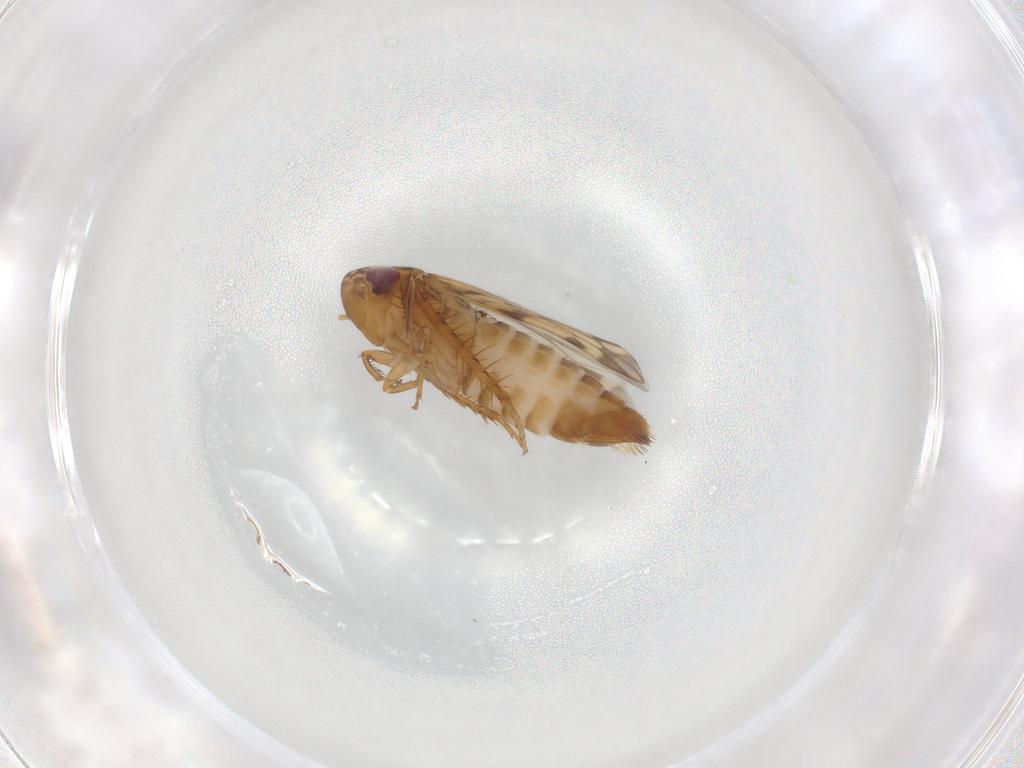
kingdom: Animalia
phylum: Arthropoda
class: Insecta
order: Hemiptera
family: Cicadellidae
